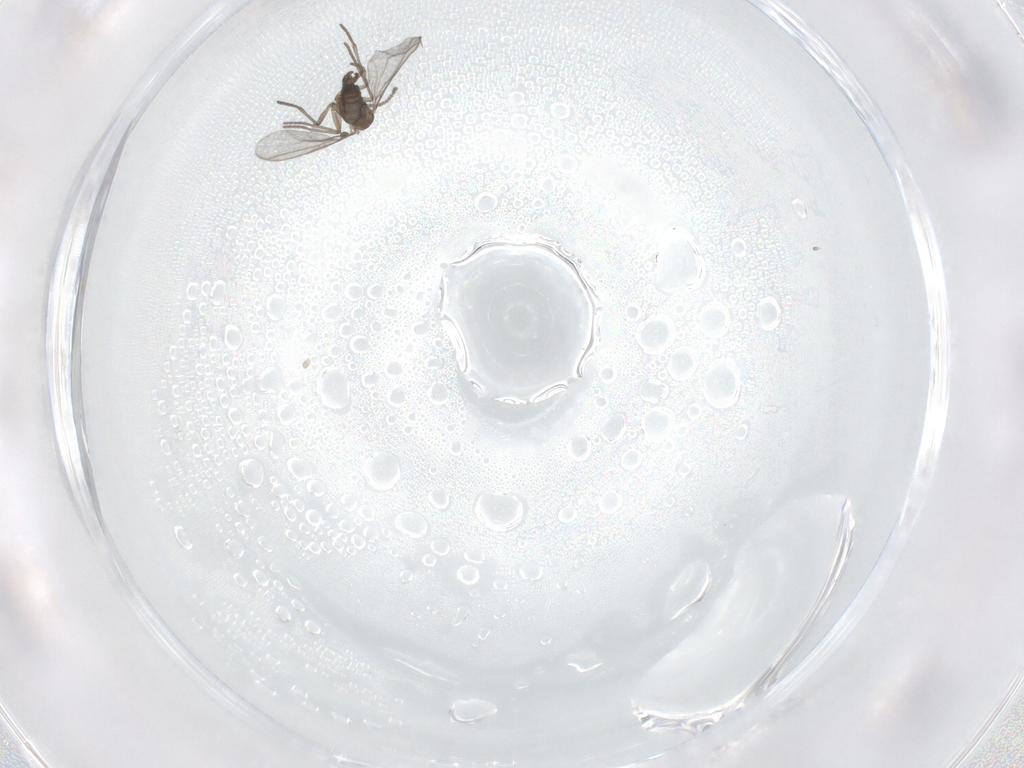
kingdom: Animalia
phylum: Arthropoda
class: Insecta
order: Diptera
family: Sciaridae
